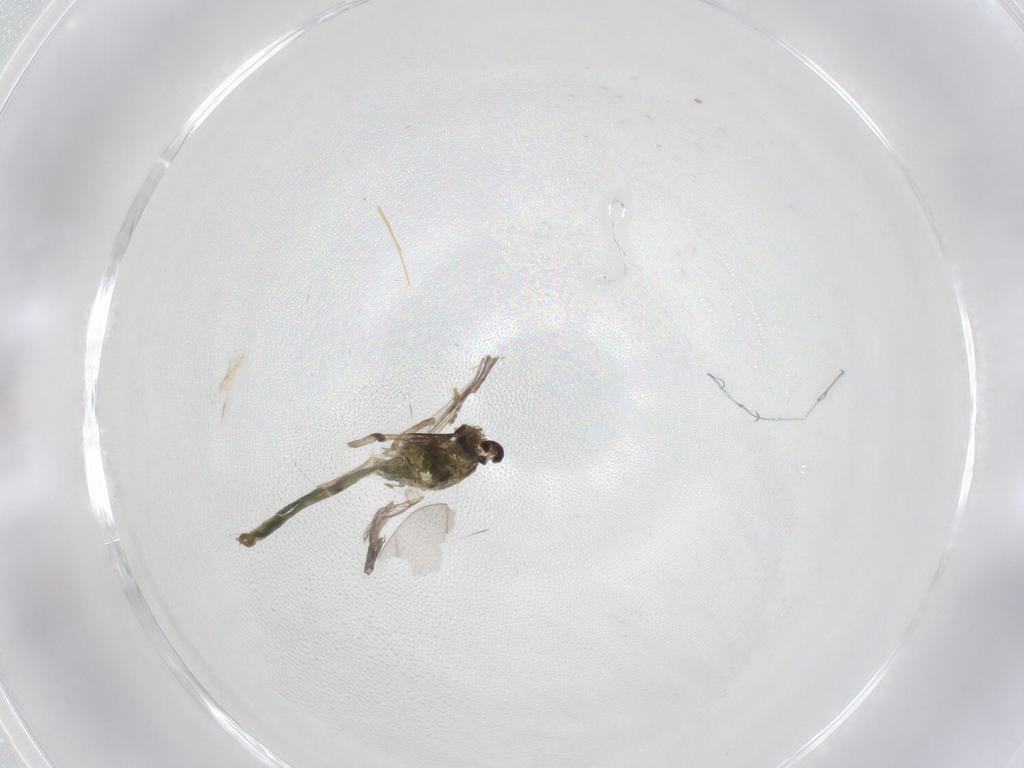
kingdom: Animalia
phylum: Arthropoda
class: Insecta
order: Diptera
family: Chironomidae
